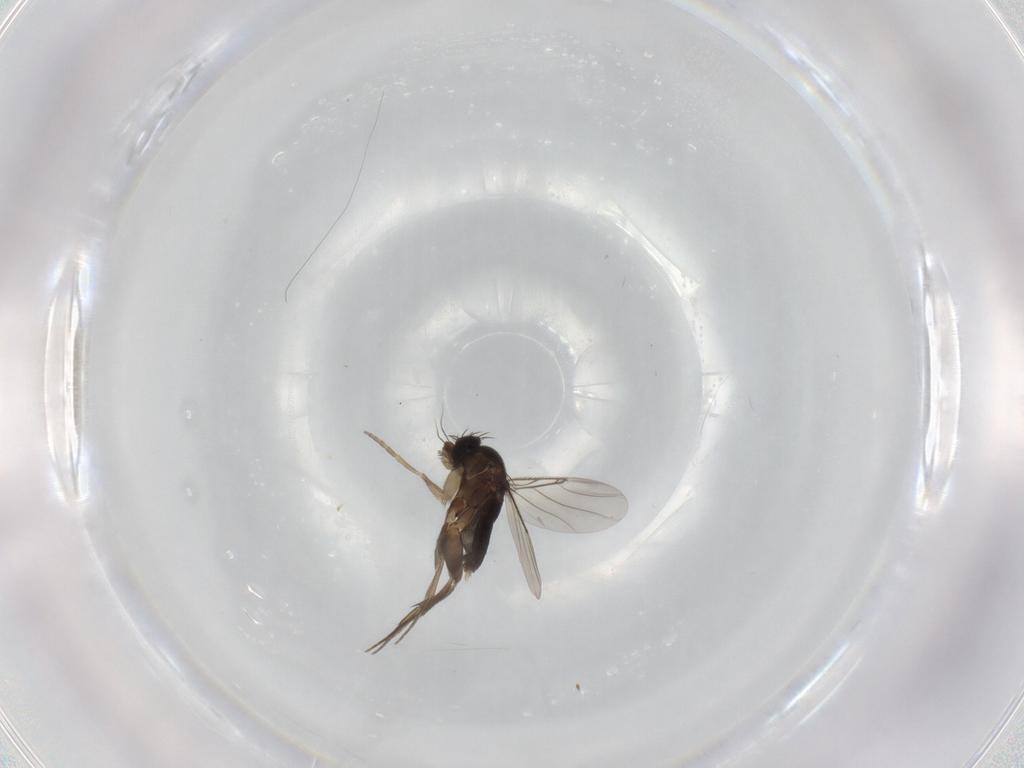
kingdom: Animalia
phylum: Arthropoda
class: Insecta
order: Diptera
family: Phoridae
